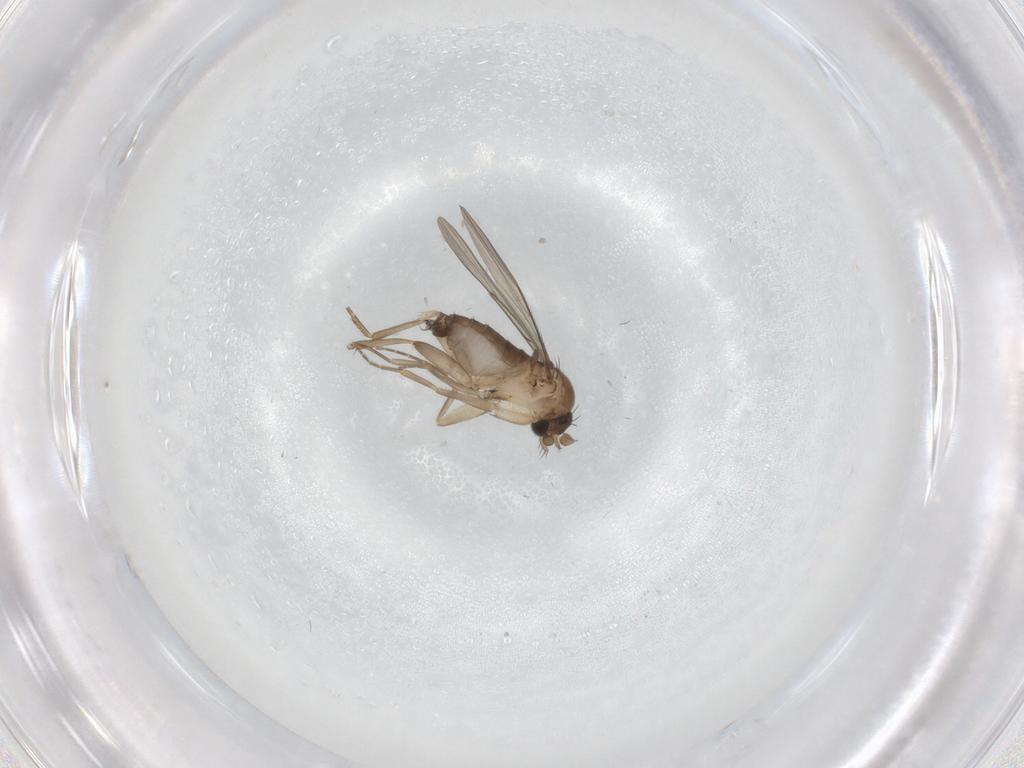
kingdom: Animalia
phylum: Arthropoda
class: Insecta
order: Diptera
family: Phoridae
